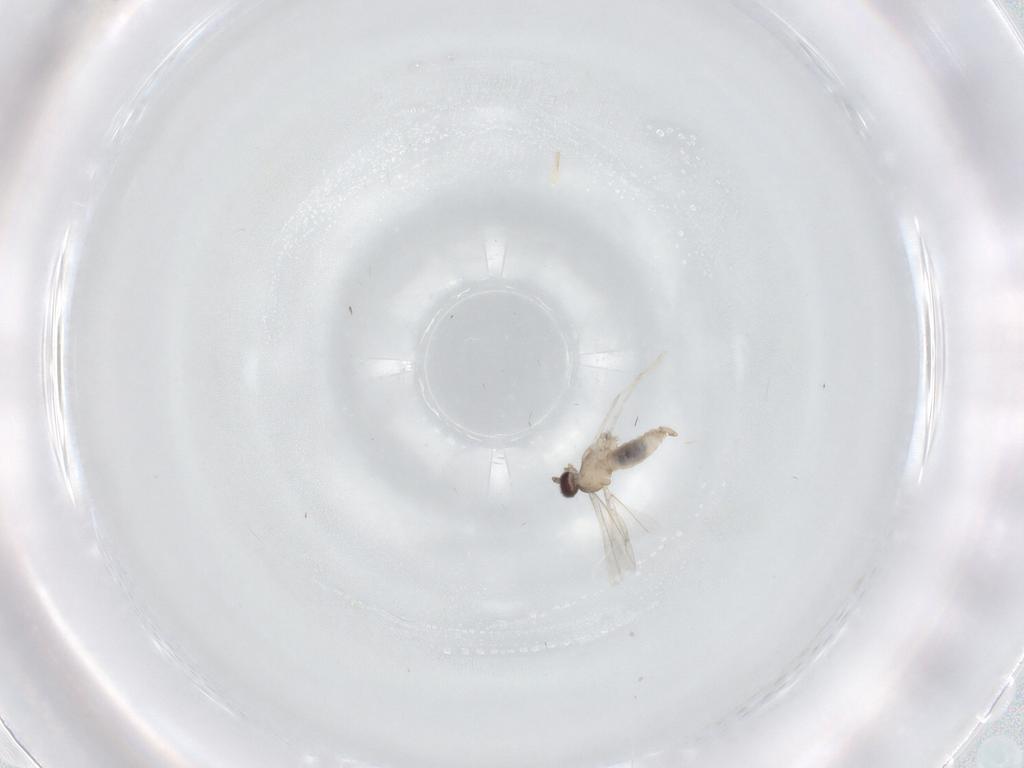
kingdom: Animalia
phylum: Arthropoda
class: Insecta
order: Diptera
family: Cecidomyiidae
